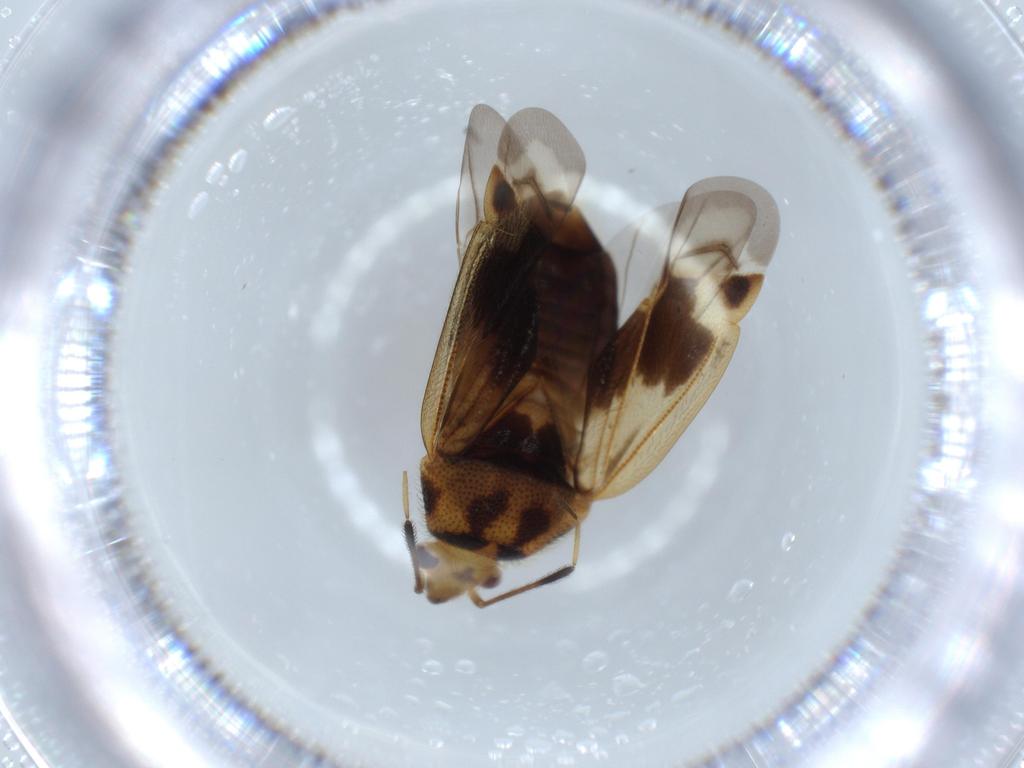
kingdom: Animalia
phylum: Arthropoda
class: Insecta
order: Hemiptera
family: Miridae
